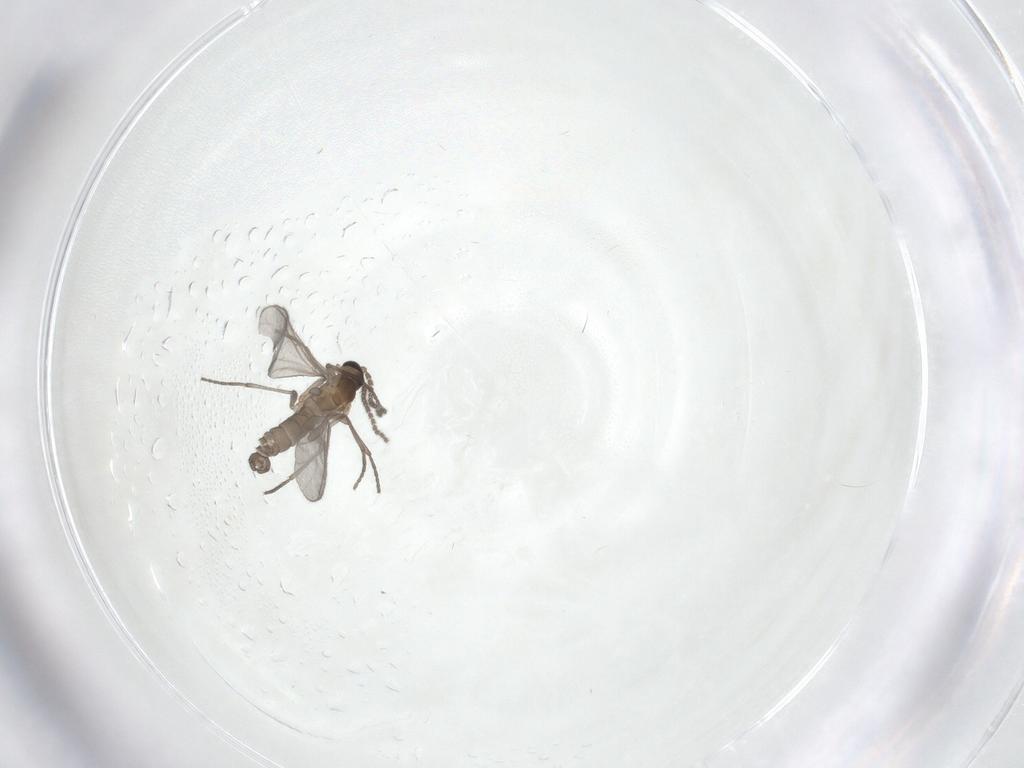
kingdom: Animalia
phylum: Arthropoda
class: Insecta
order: Diptera
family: Sciaridae
